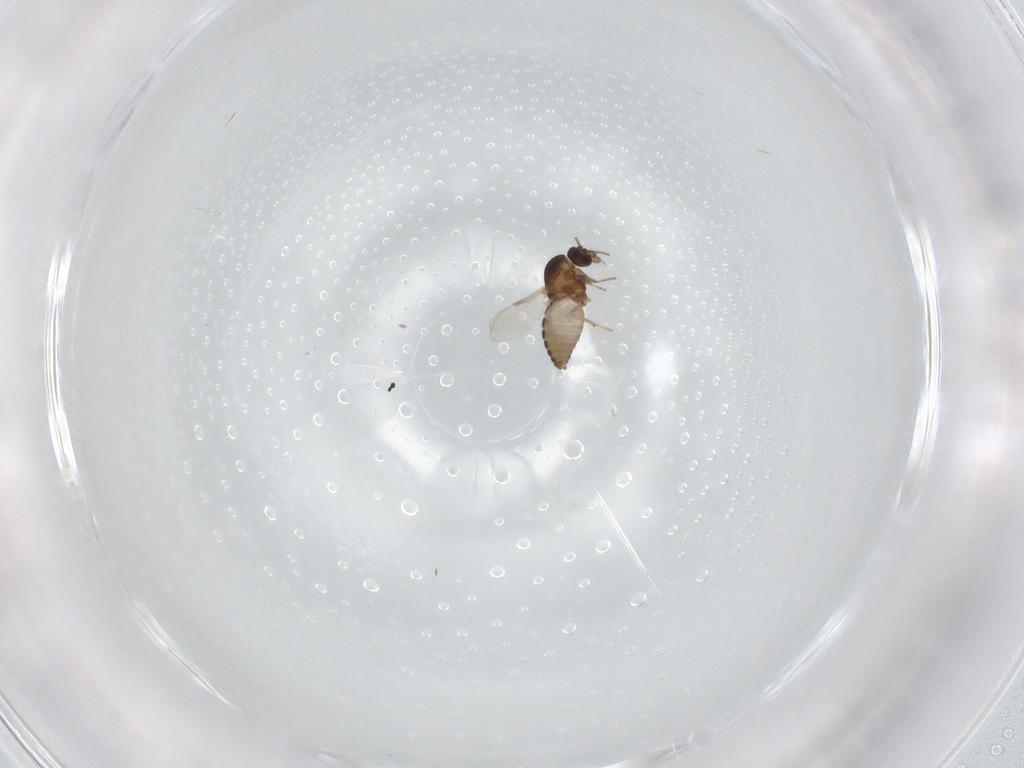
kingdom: Animalia
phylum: Arthropoda
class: Insecta
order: Diptera
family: Ceratopogonidae
